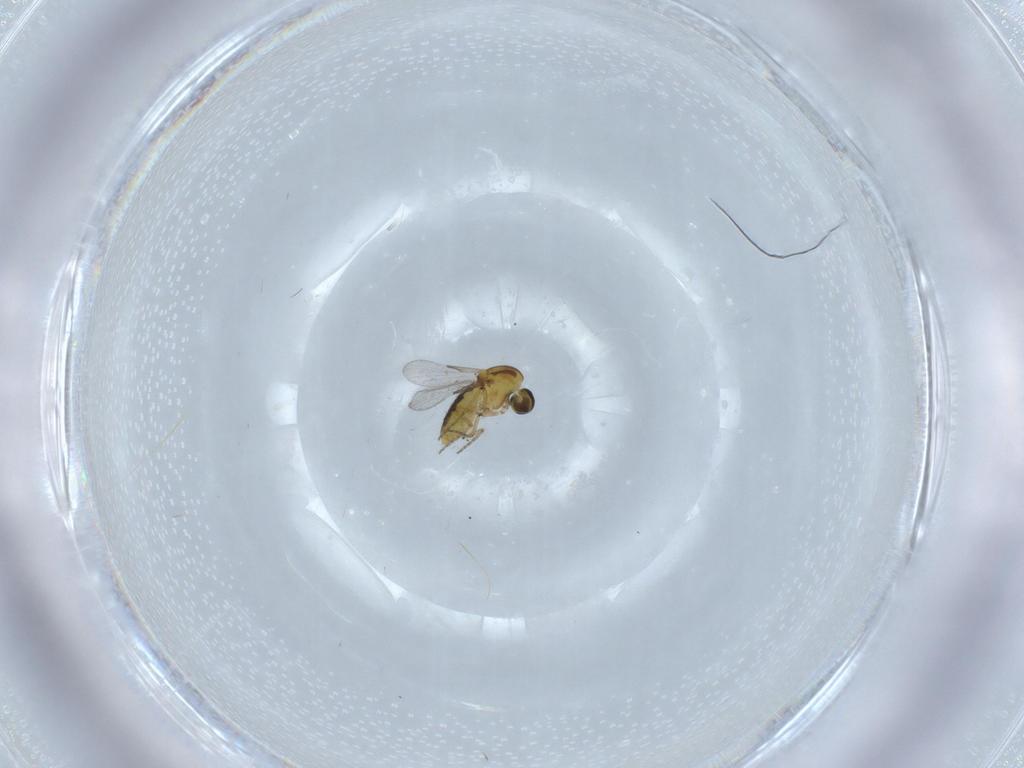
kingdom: Animalia
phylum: Arthropoda
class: Insecta
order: Diptera
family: Ceratopogonidae
